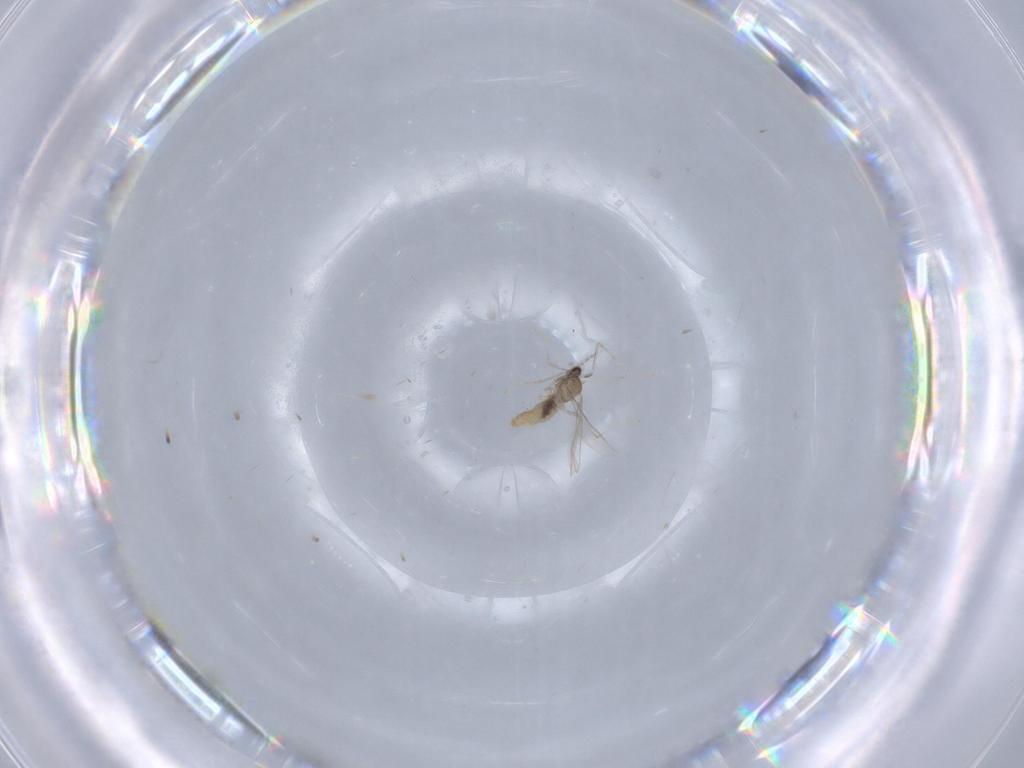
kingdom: Animalia
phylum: Arthropoda
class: Insecta
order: Diptera
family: Cecidomyiidae
